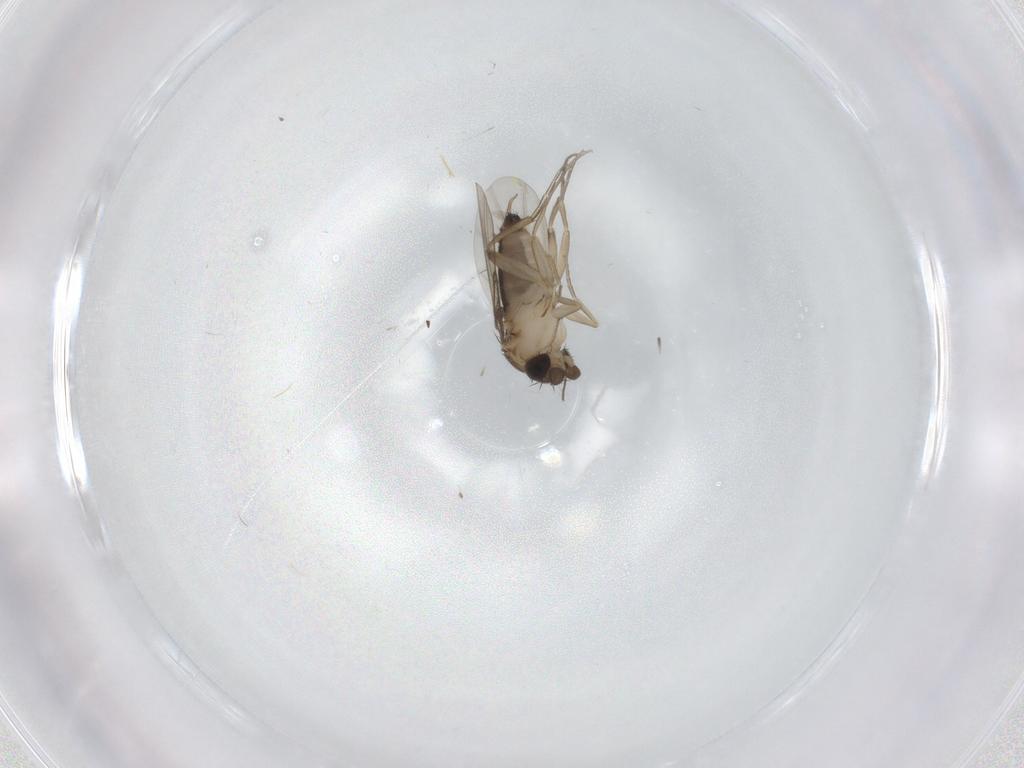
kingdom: Animalia
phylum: Arthropoda
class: Insecta
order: Diptera
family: Phoridae
